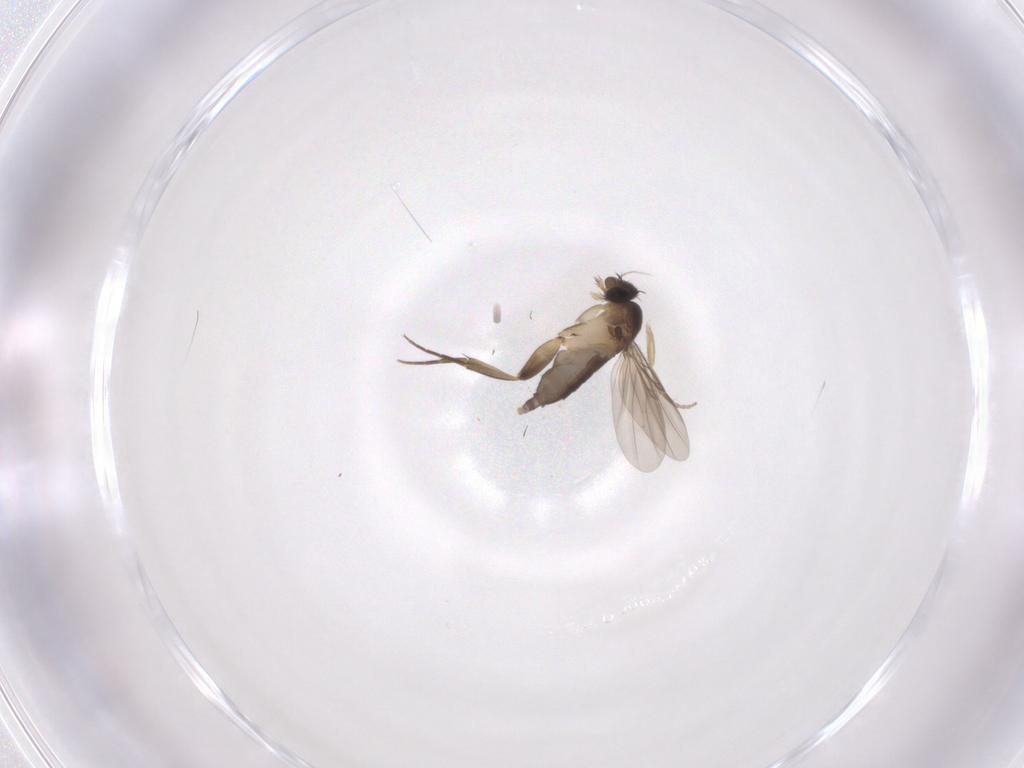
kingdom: Animalia
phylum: Arthropoda
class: Insecta
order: Diptera
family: Phoridae
